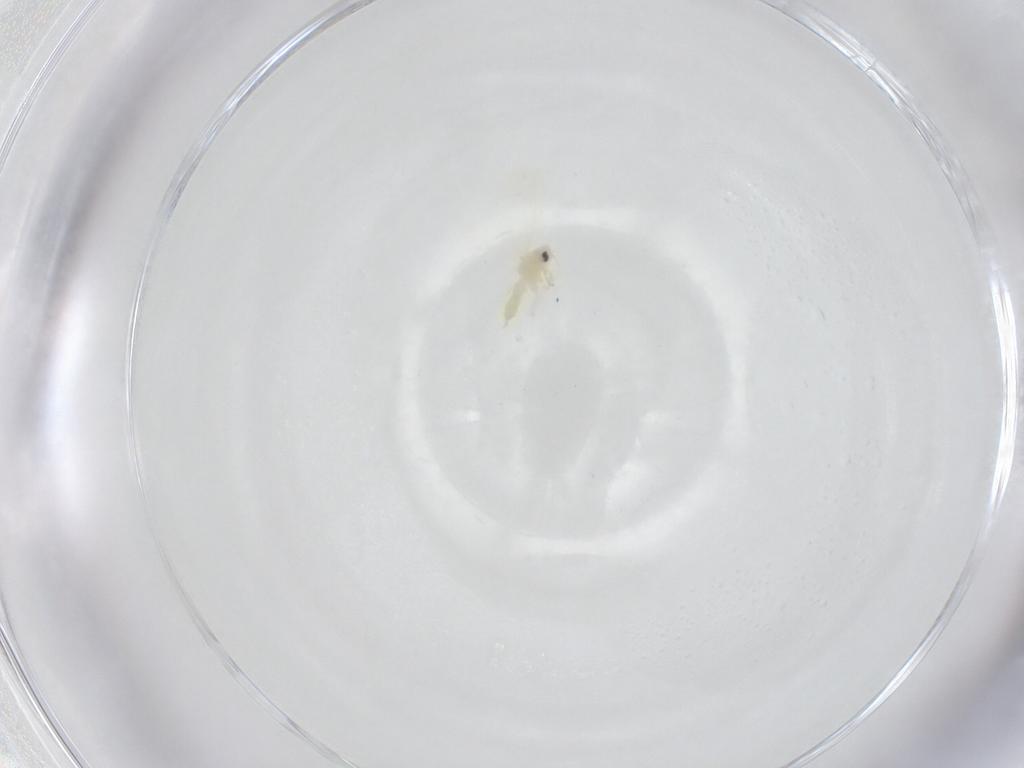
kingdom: Animalia
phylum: Arthropoda
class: Insecta
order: Hemiptera
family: Aleyrodidae
